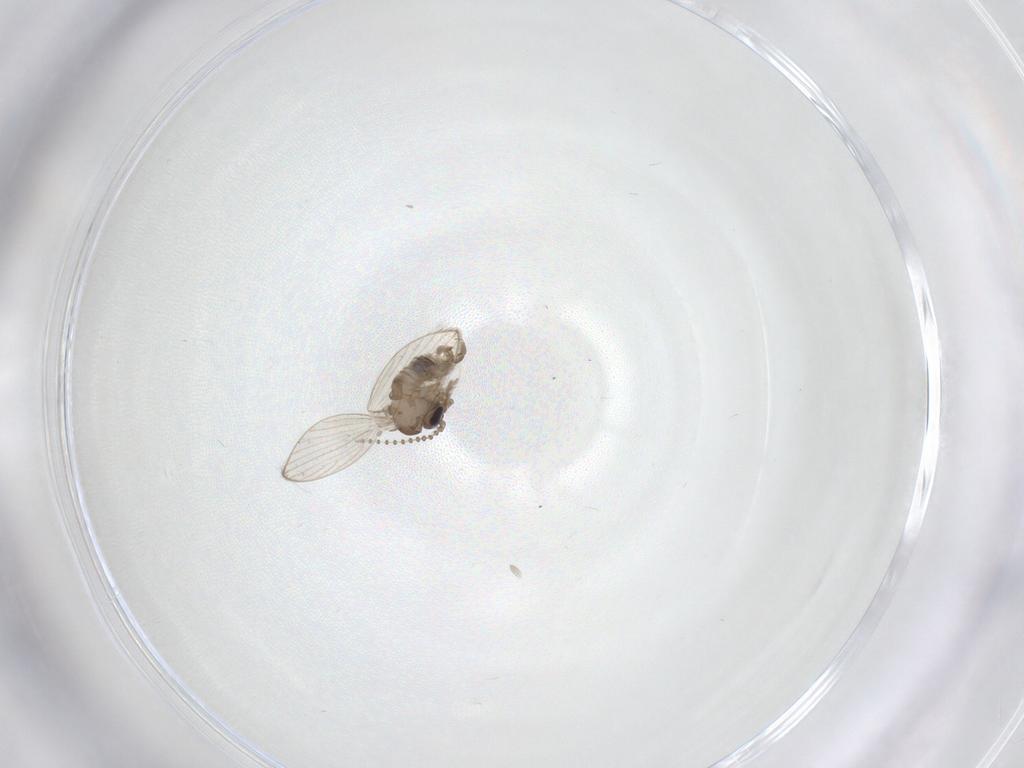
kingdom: Animalia
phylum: Arthropoda
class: Insecta
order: Diptera
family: Psychodidae
